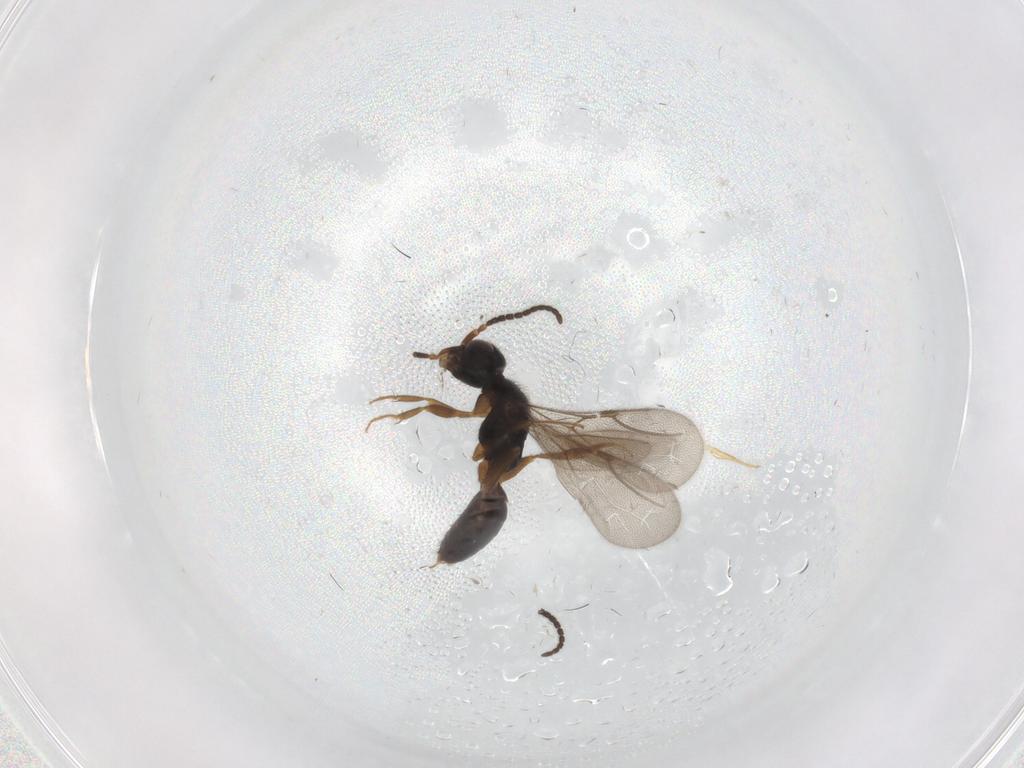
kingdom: Animalia
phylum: Arthropoda
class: Insecta
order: Hymenoptera
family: Bethylidae
